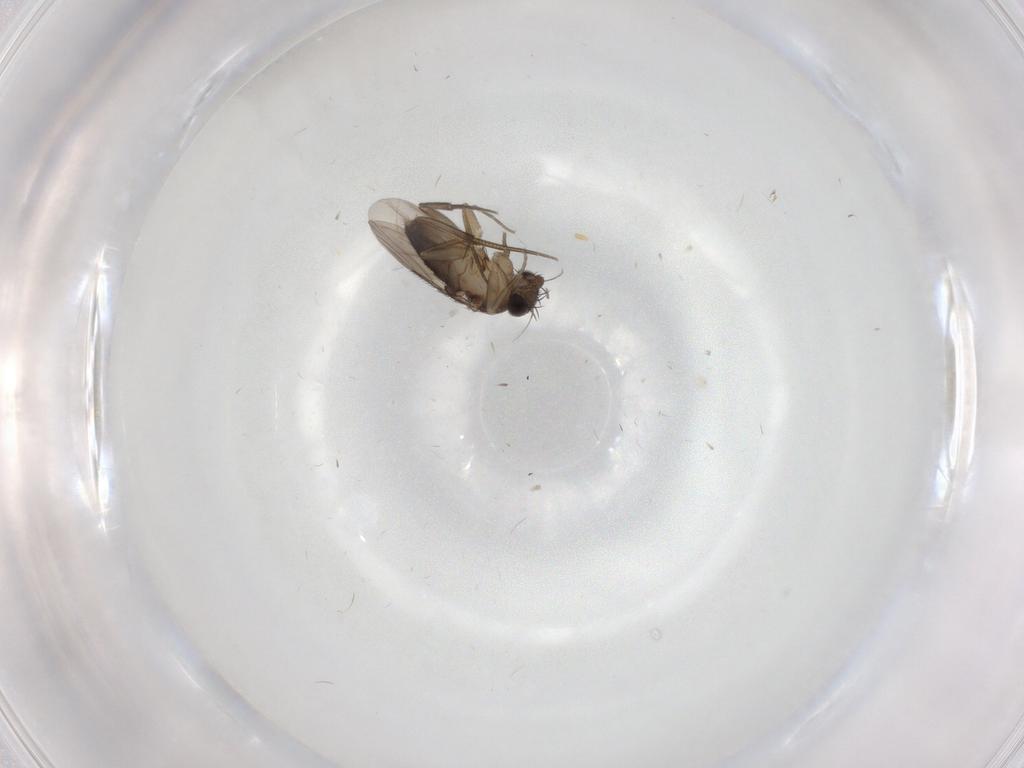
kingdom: Animalia
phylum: Arthropoda
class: Insecta
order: Diptera
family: Phoridae
